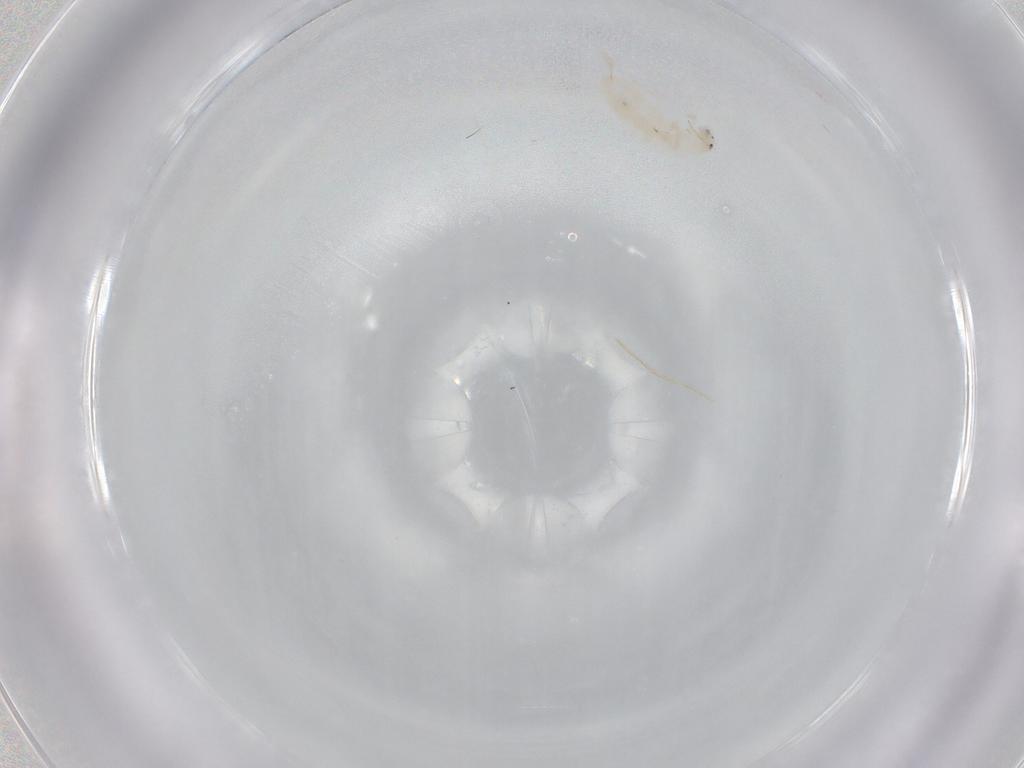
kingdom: Animalia
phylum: Arthropoda
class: Collembola
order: Entomobryomorpha
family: Entomobryidae
